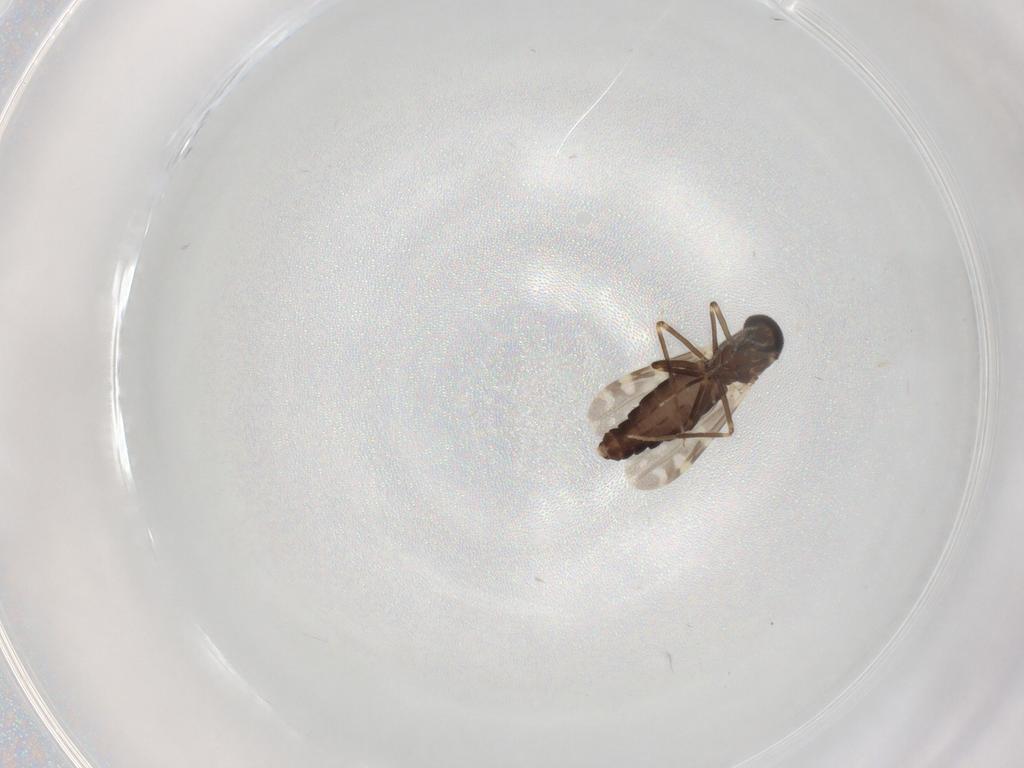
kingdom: Animalia
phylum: Arthropoda
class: Insecta
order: Diptera
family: Ceratopogonidae
